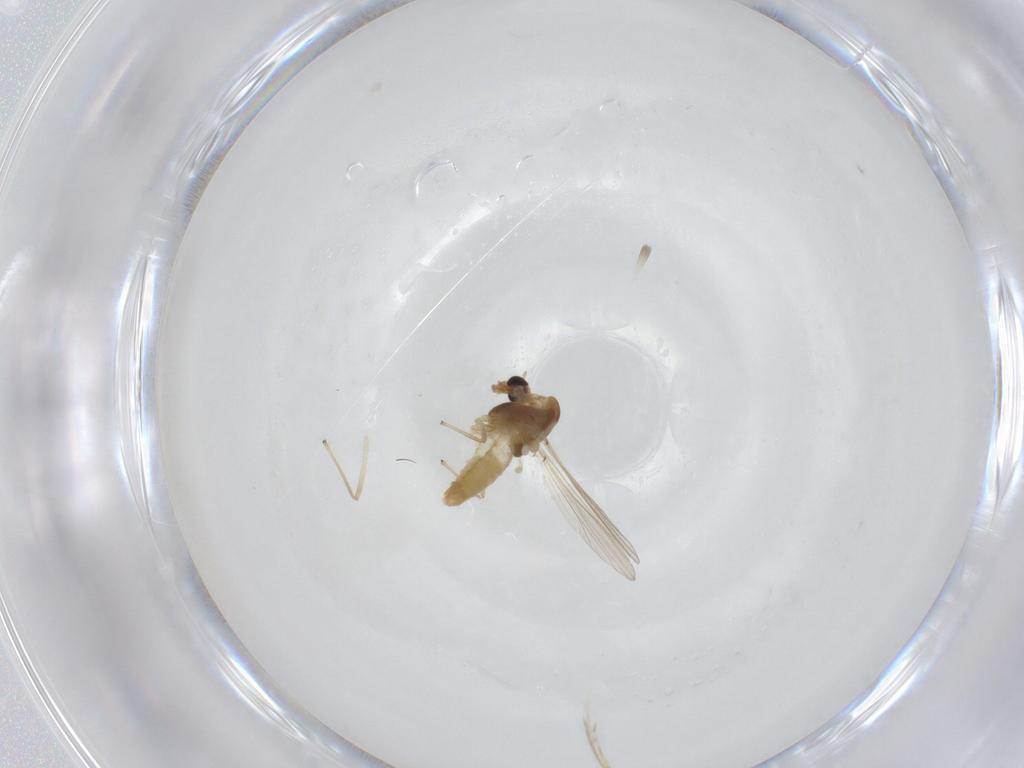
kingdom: Animalia
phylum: Arthropoda
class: Insecta
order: Diptera
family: Chironomidae
